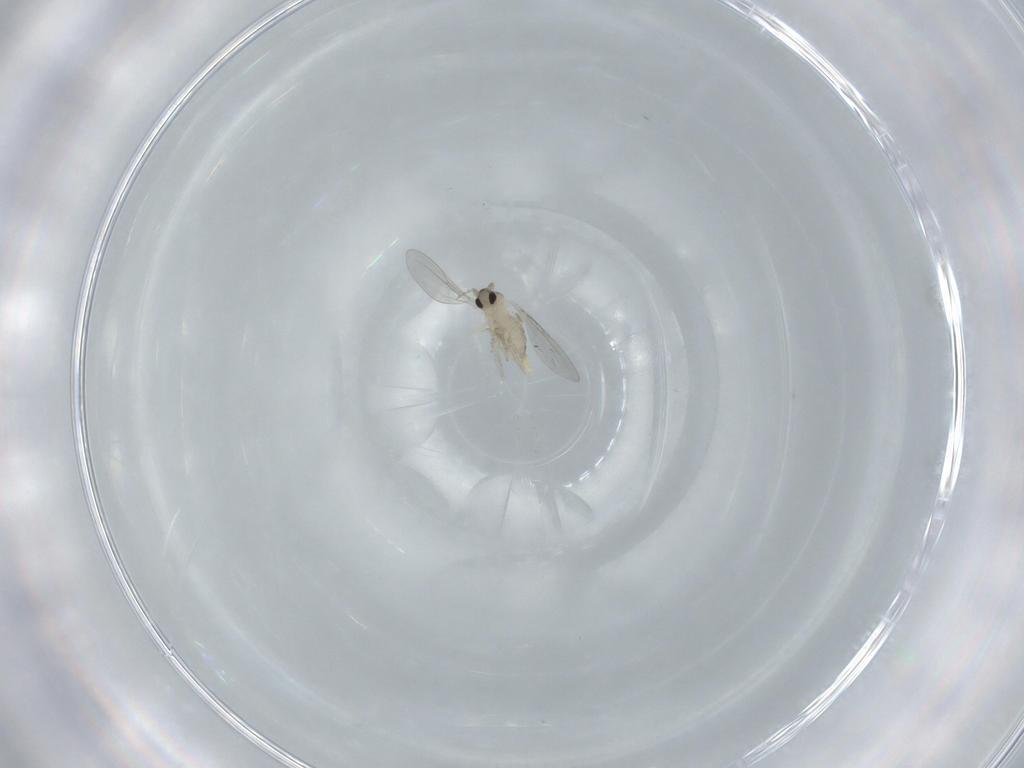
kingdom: Animalia
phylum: Arthropoda
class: Insecta
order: Diptera
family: Cecidomyiidae
